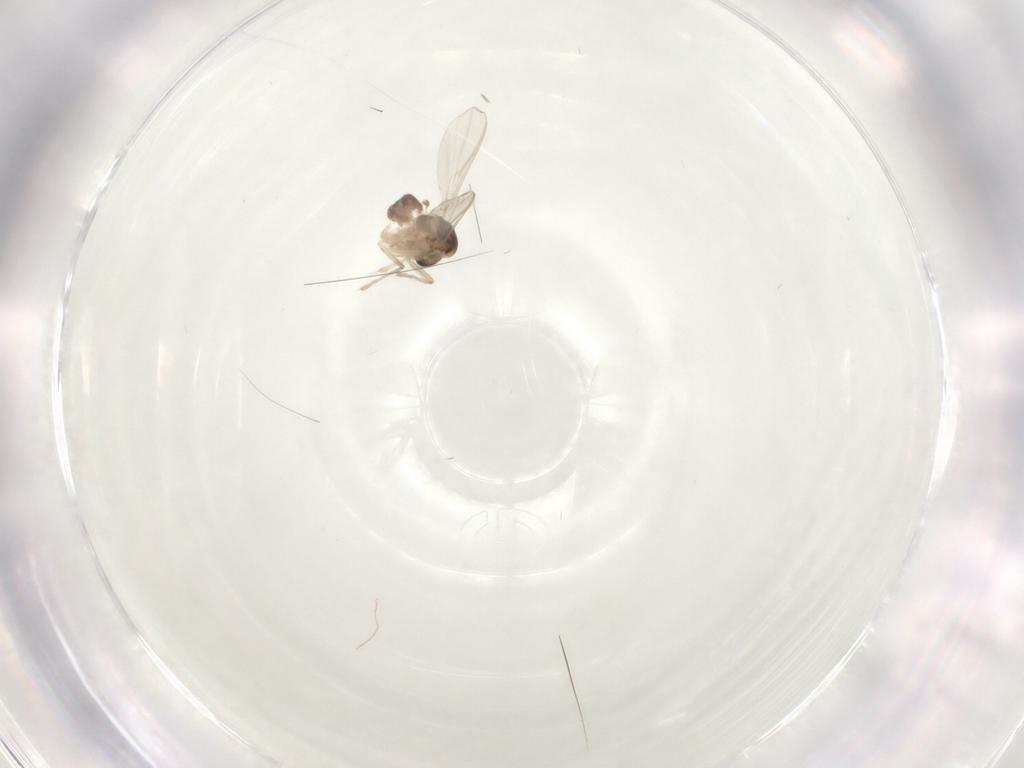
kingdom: Animalia
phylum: Arthropoda
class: Insecta
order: Diptera
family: Chironomidae
